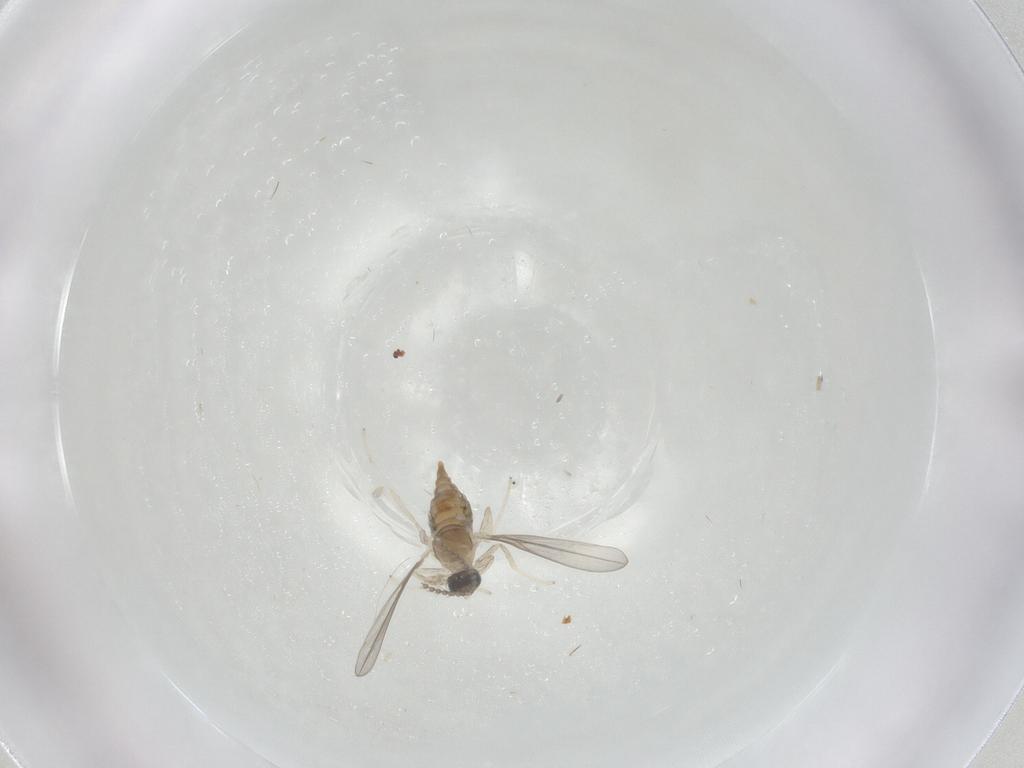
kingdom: Animalia
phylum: Arthropoda
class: Insecta
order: Diptera
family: Cecidomyiidae
